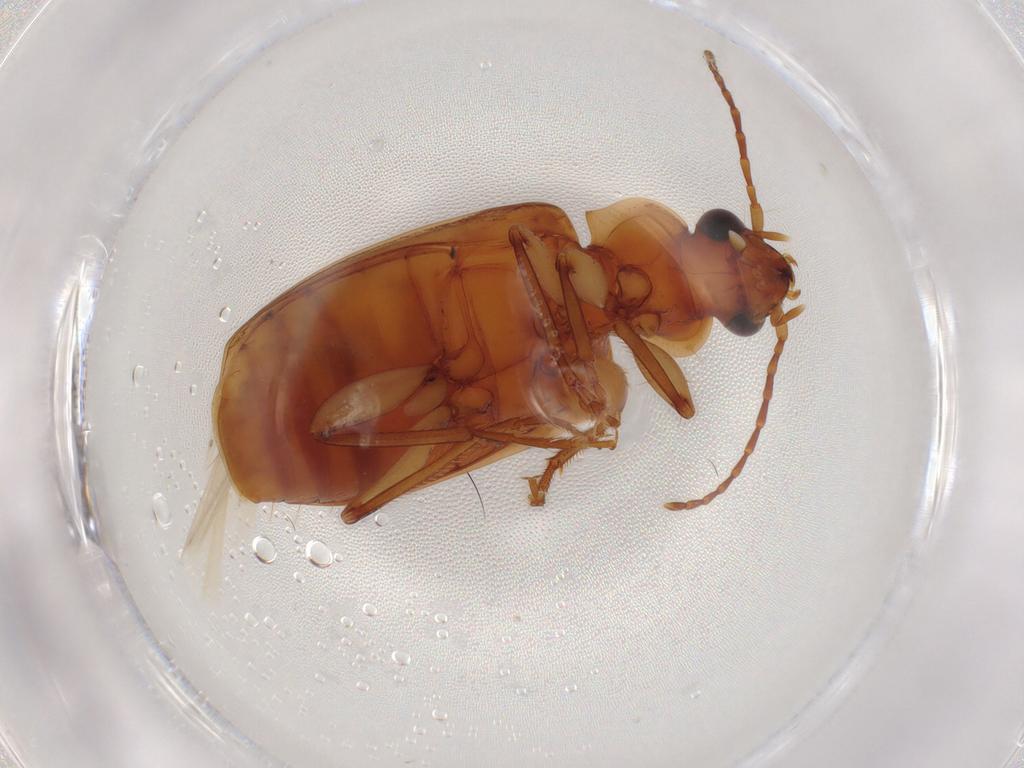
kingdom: Animalia
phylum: Arthropoda
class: Insecta
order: Coleoptera
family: Carabidae
